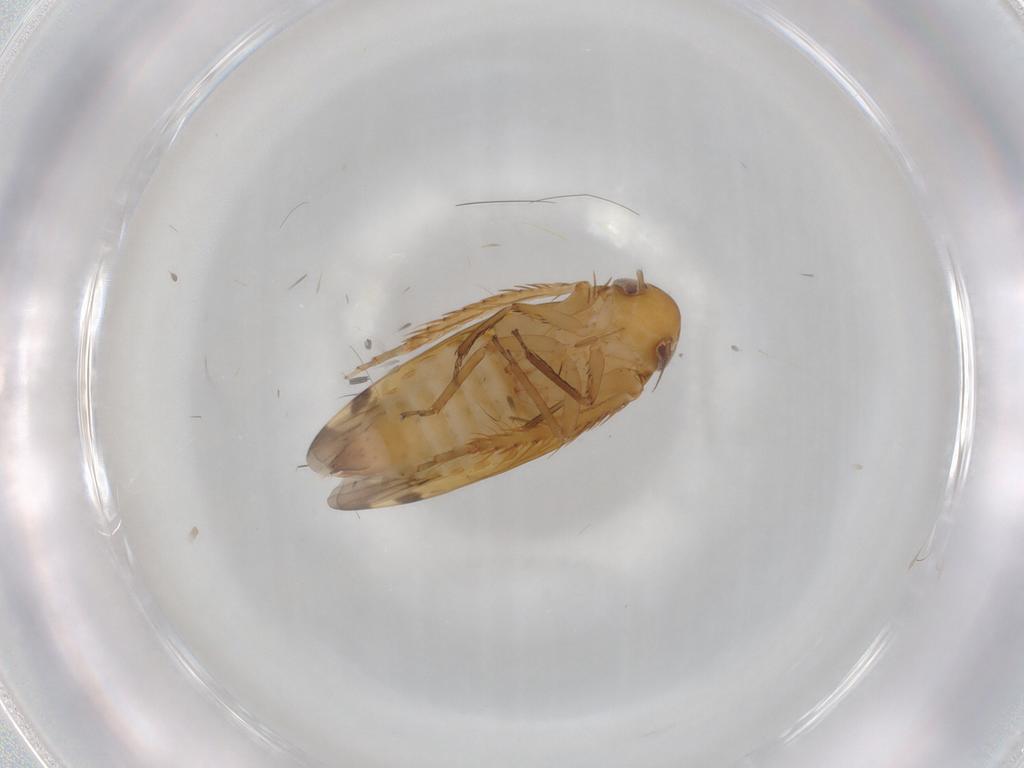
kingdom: Animalia
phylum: Arthropoda
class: Insecta
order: Hemiptera
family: Cicadellidae
